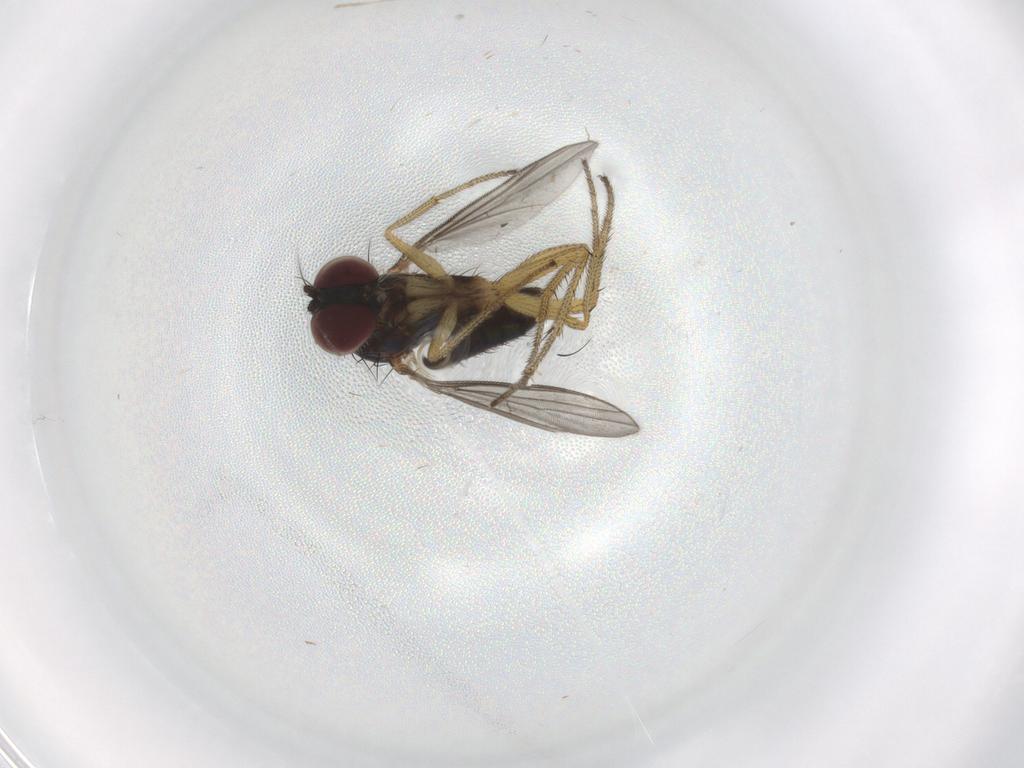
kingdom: Animalia
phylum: Arthropoda
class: Insecta
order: Diptera
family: Chironomidae
